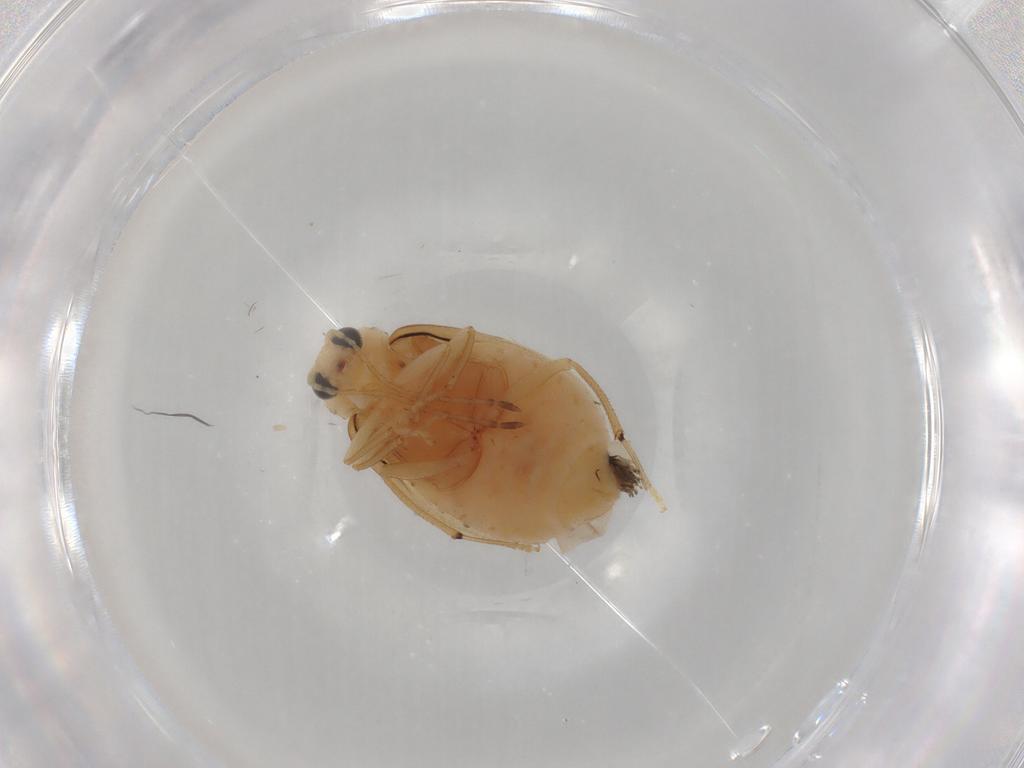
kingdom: Animalia
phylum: Arthropoda
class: Insecta
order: Coleoptera
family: Chrysomelidae
